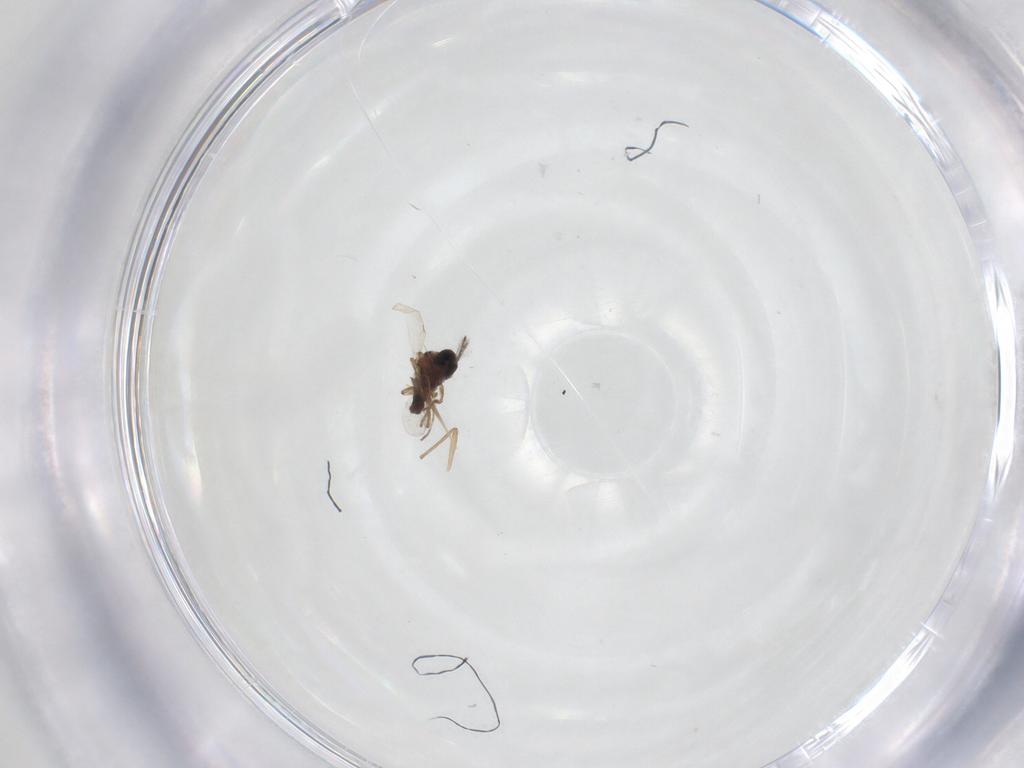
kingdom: Animalia
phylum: Arthropoda
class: Insecta
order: Diptera
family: Ceratopogonidae
